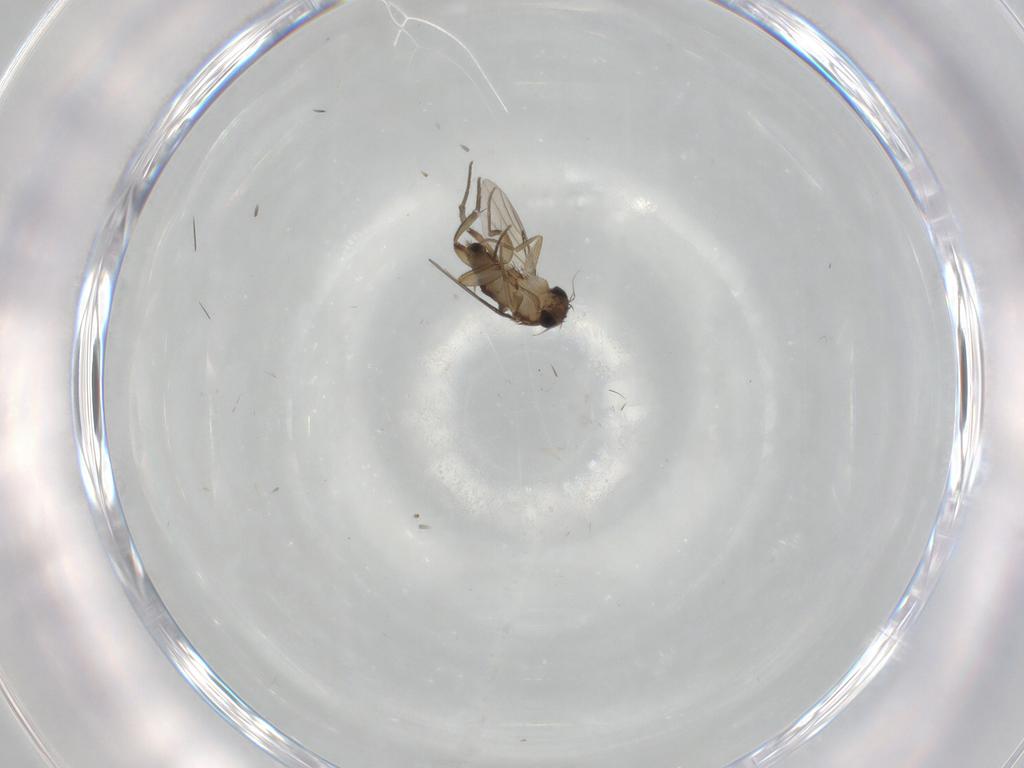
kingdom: Animalia
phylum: Arthropoda
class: Insecta
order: Diptera
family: Phoridae
